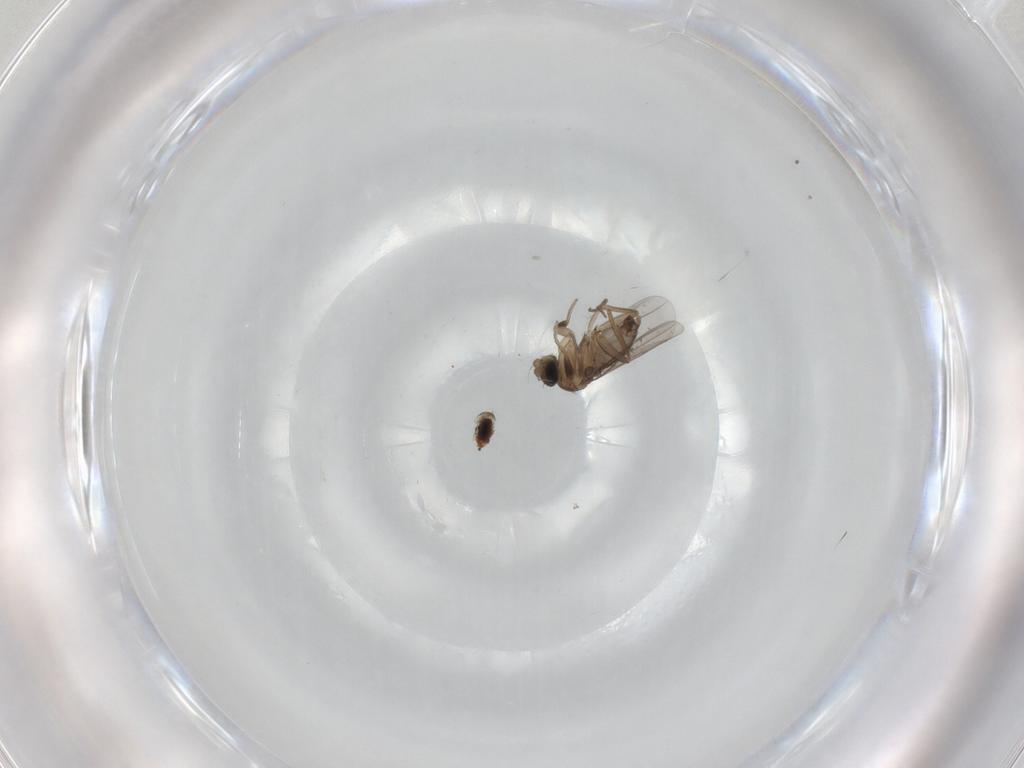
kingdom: Animalia
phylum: Arthropoda
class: Insecta
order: Diptera
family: Phoridae
